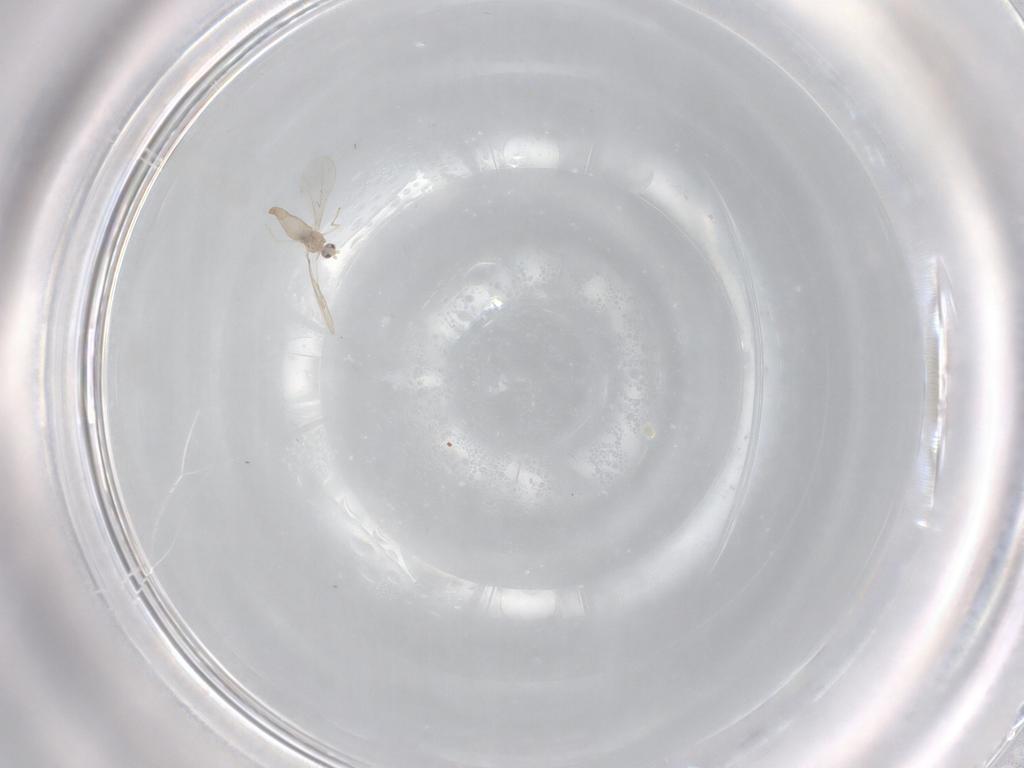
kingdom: Animalia
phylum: Arthropoda
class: Insecta
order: Diptera
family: Cecidomyiidae
